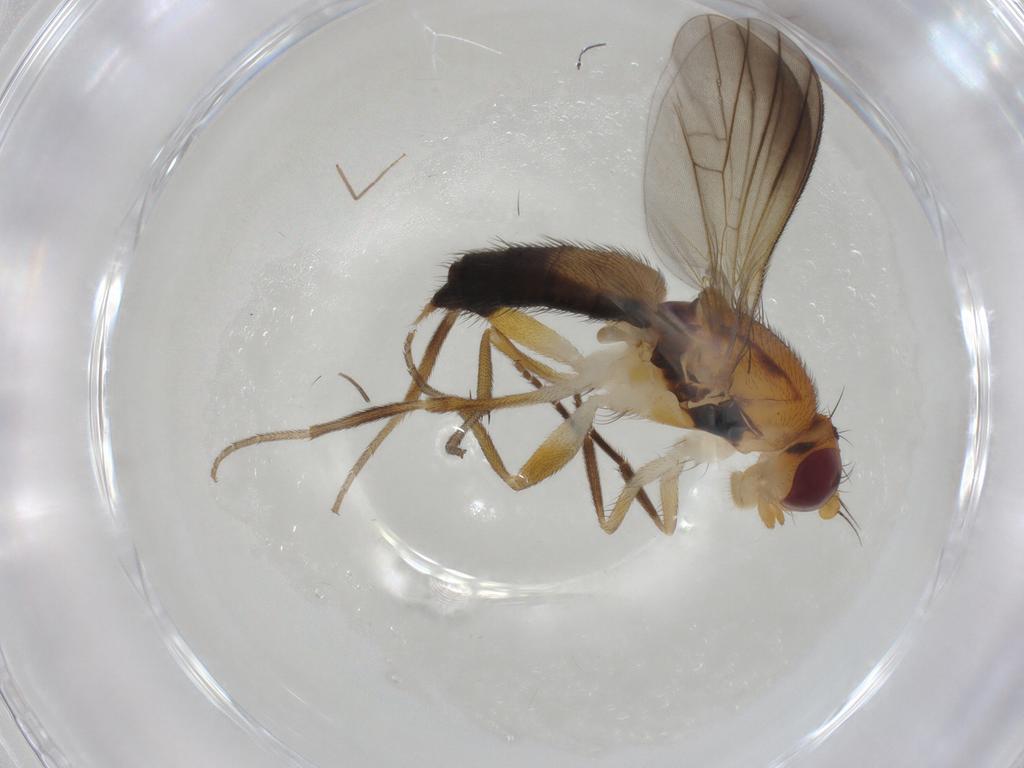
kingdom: Animalia
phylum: Arthropoda
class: Insecta
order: Diptera
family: Clusiidae
